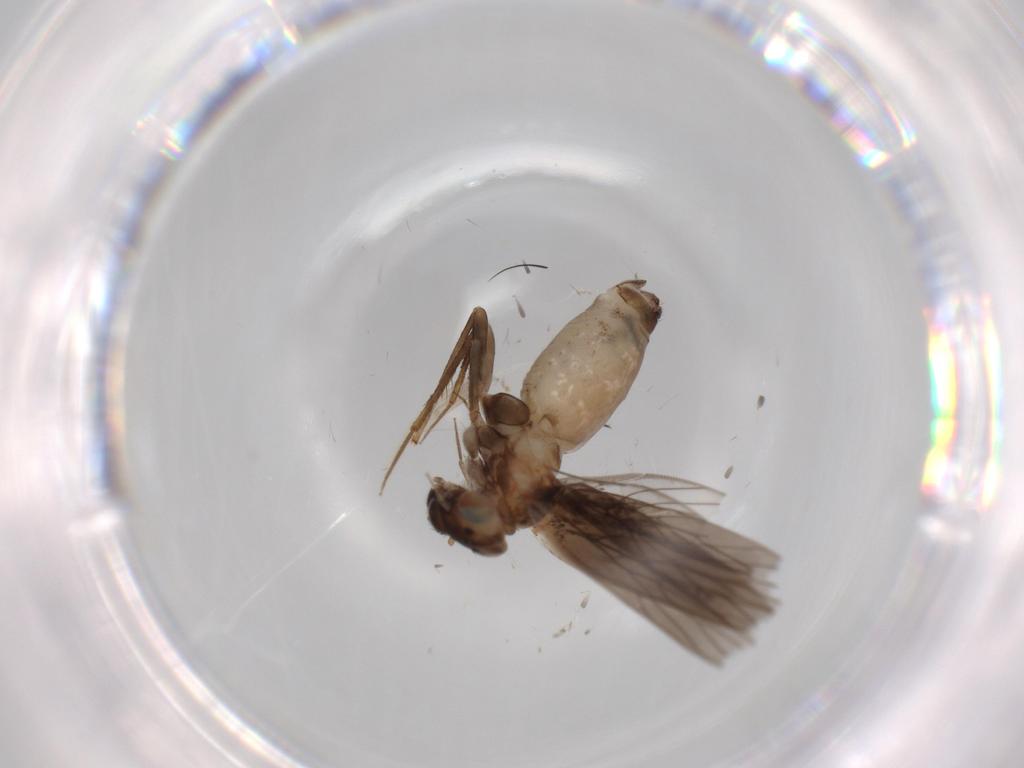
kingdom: Animalia
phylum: Arthropoda
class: Insecta
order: Psocodea
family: Lepidopsocidae
